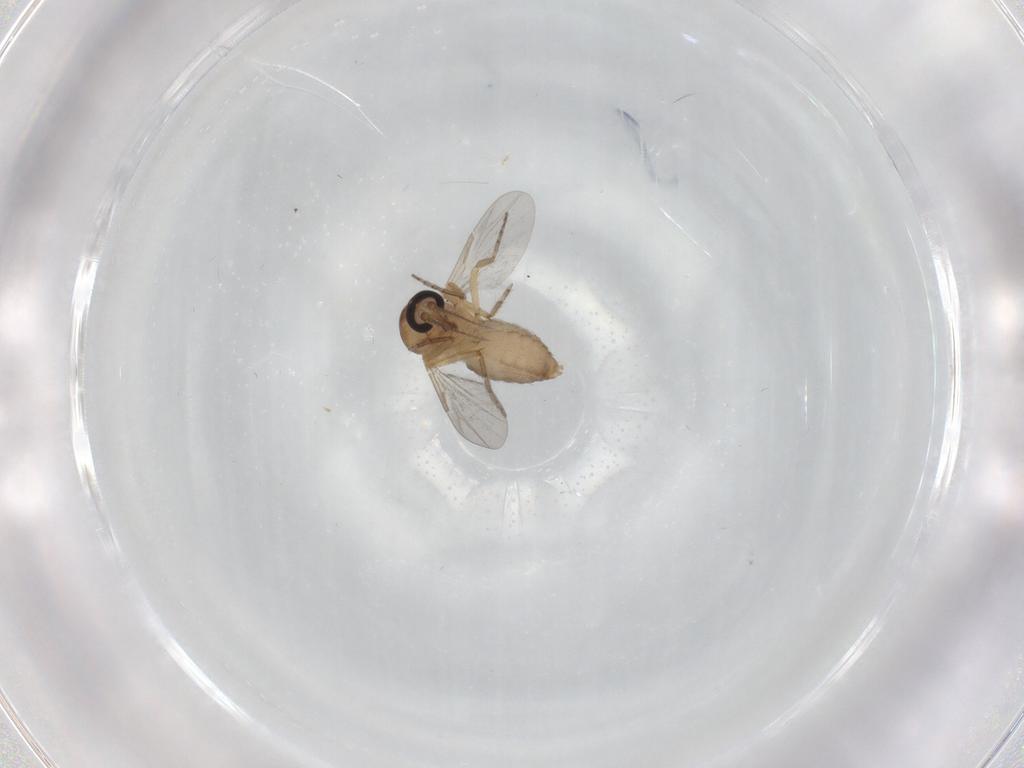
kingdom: Animalia
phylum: Arthropoda
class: Insecta
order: Diptera
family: Ceratopogonidae
